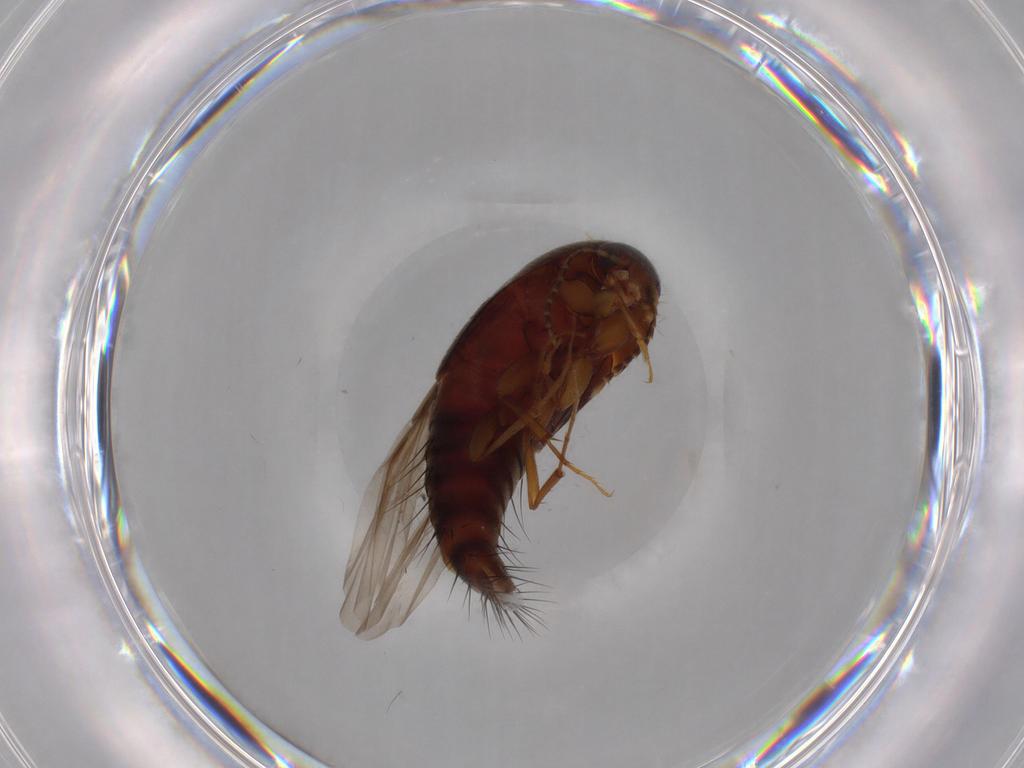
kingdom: Animalia
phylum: Arthropoda
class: Insecta
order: Coleoptera
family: Staphylinidae
